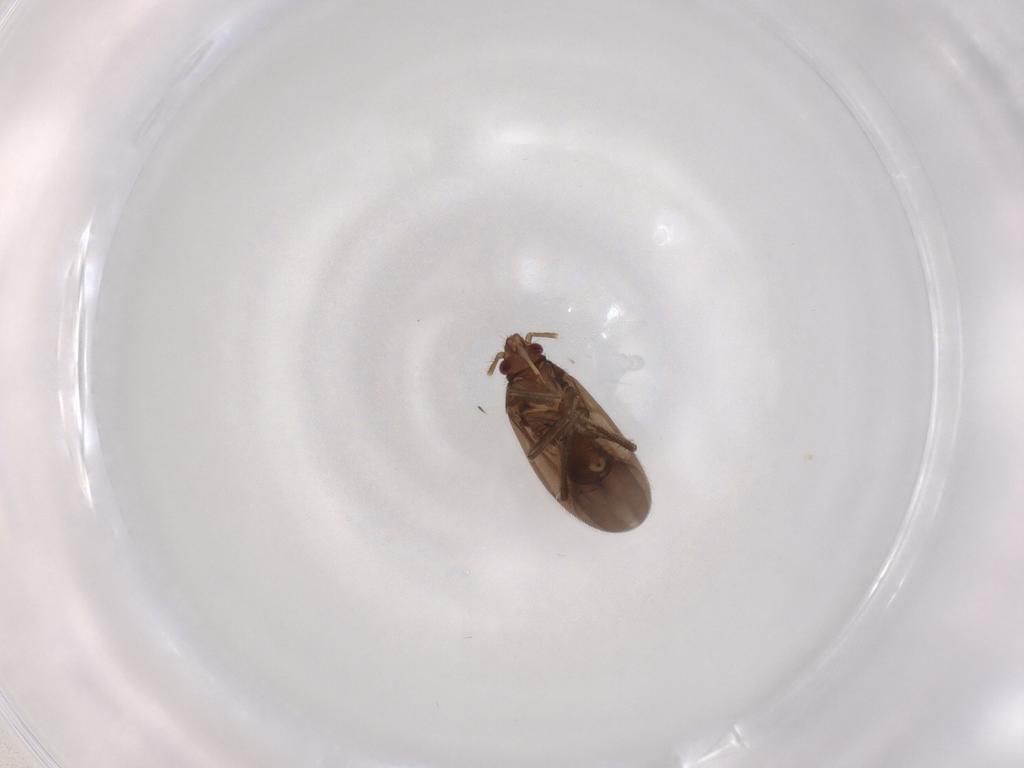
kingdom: Animalia
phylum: Arthropoda
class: Insecta
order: Hemiptera
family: Ceratocombidae
